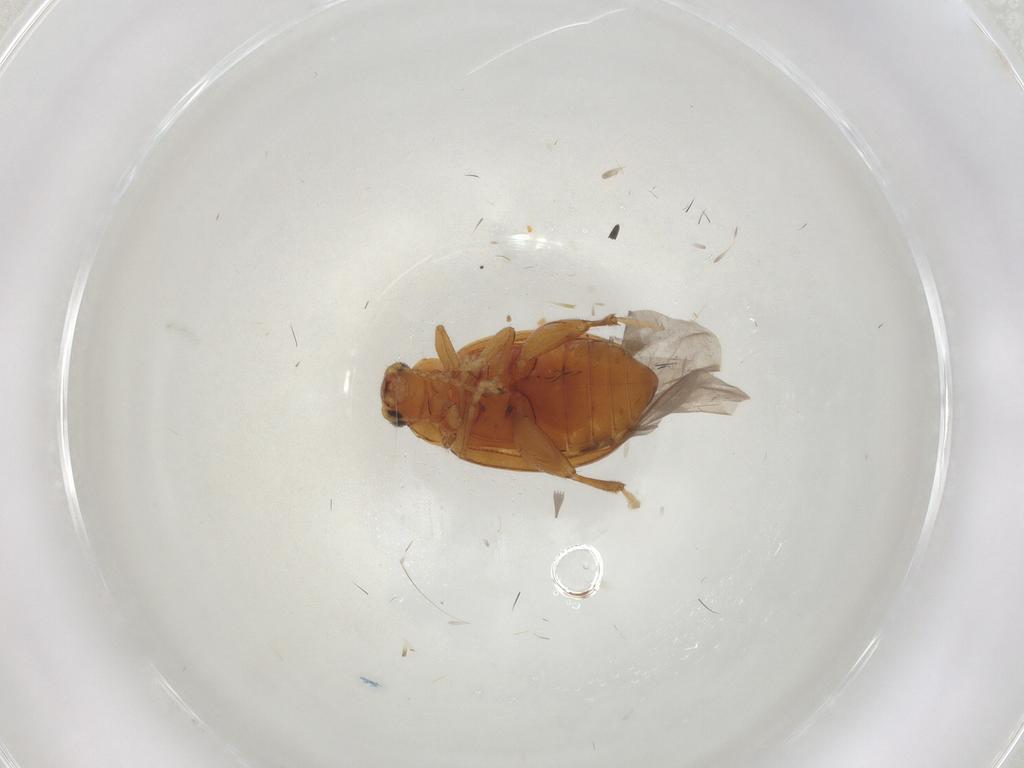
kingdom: Animalia
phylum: Arthropoda
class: Insecta
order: Coleoptera
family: Chrysomelidae
